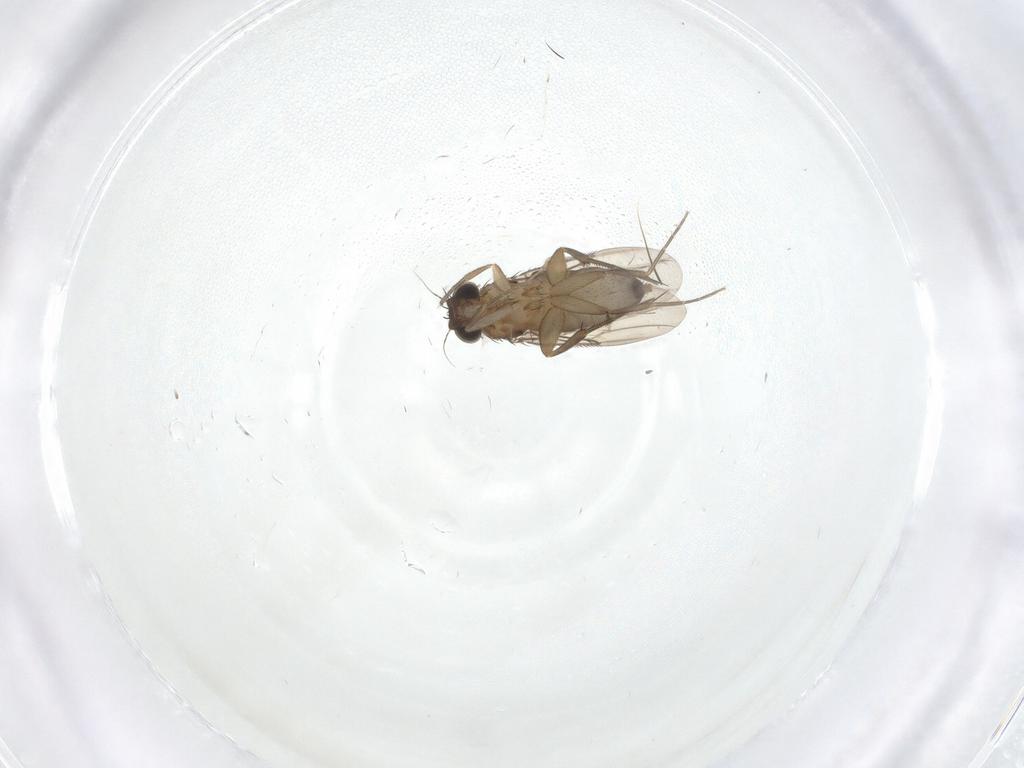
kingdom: Animalia
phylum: Arthropoda
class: Insecta
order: Diptera
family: Phoridae
